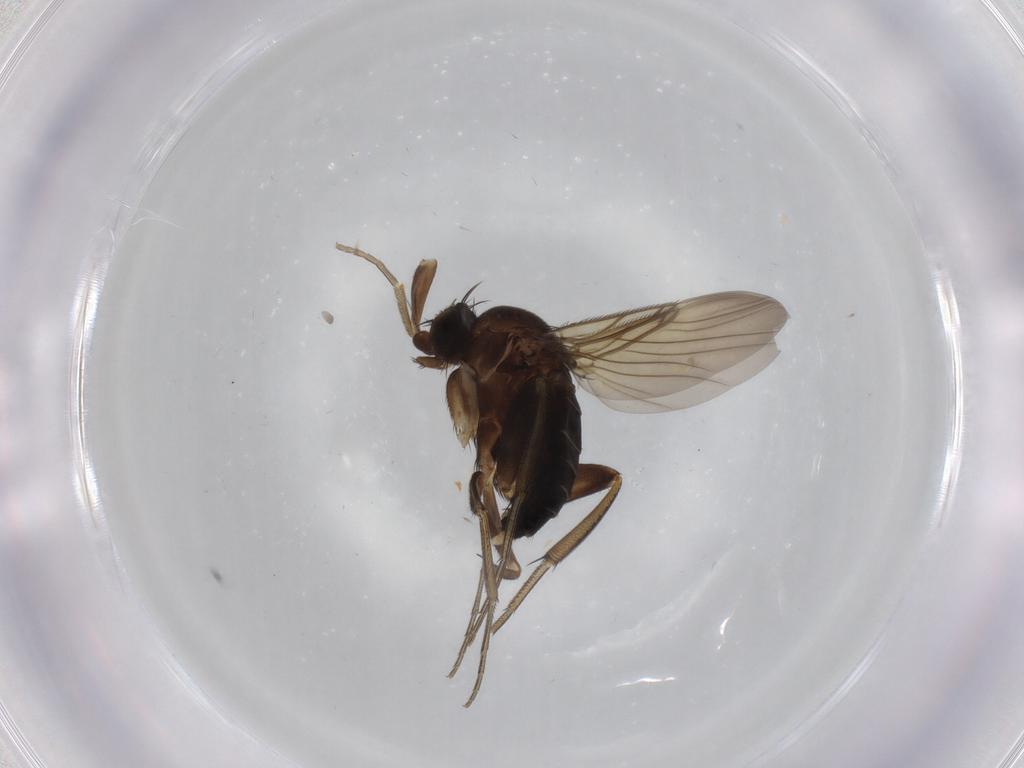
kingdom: Animalia
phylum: Arthropoda
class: Insecta
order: Diptera
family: Phoridae
